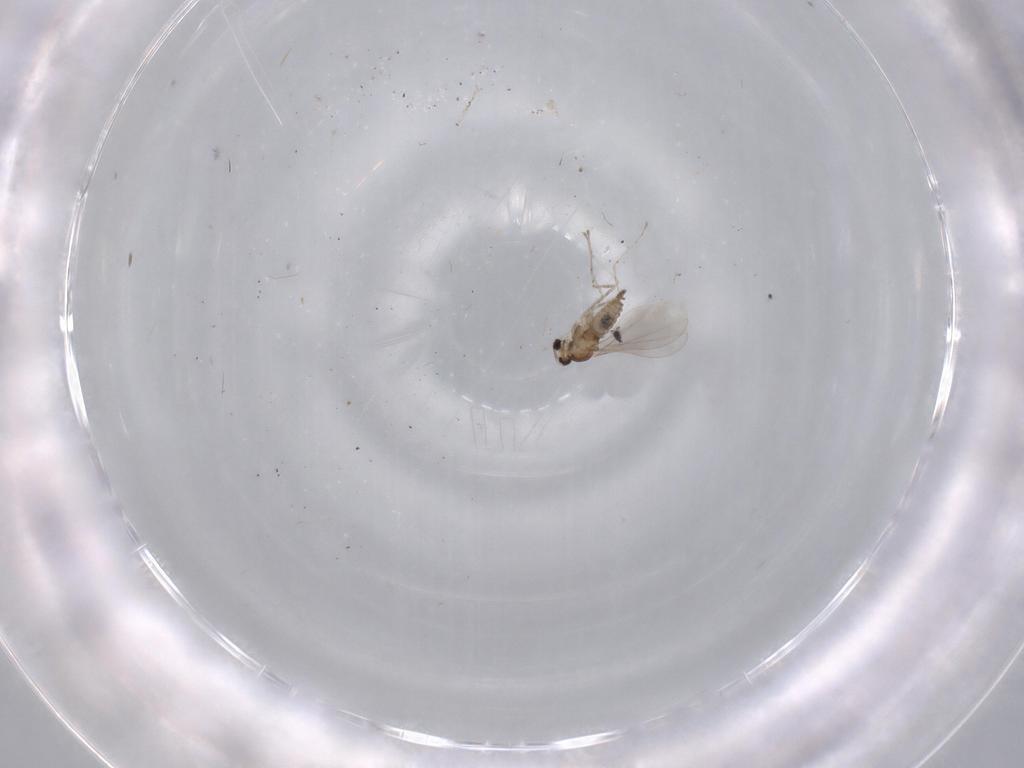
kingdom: Animalia
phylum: Arthropoda
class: Insecta
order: Diptera
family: Cecidomyiidae
